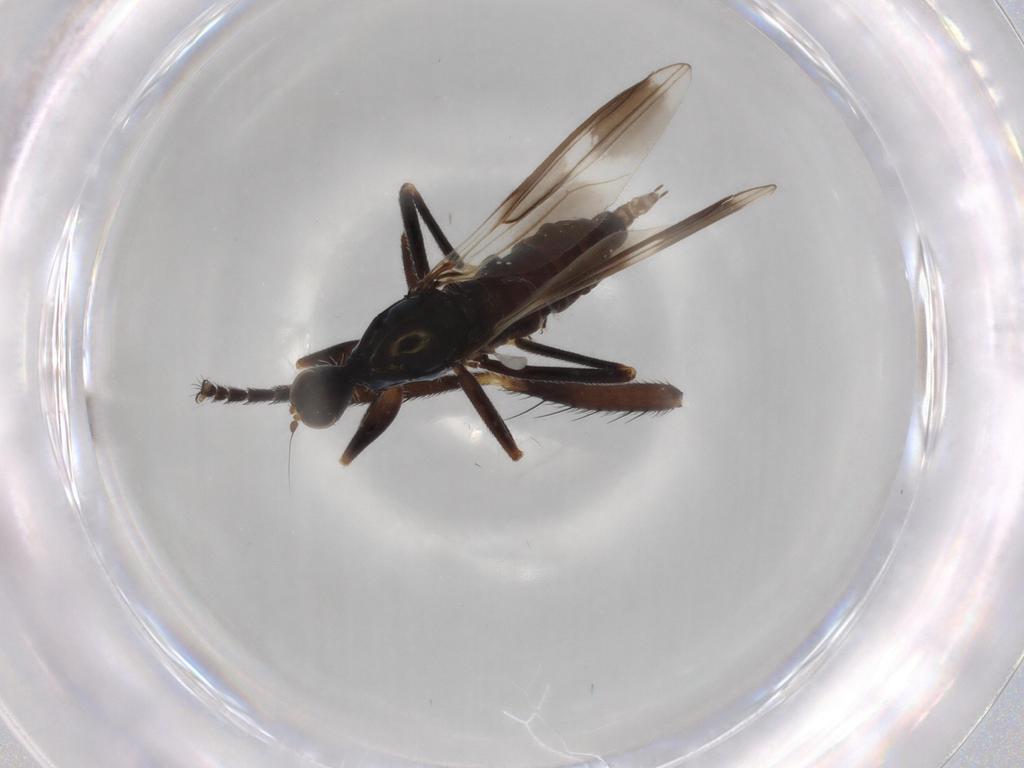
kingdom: Animalia
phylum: Arthropoda
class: Insecta
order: Diptera
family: Hybotidae
